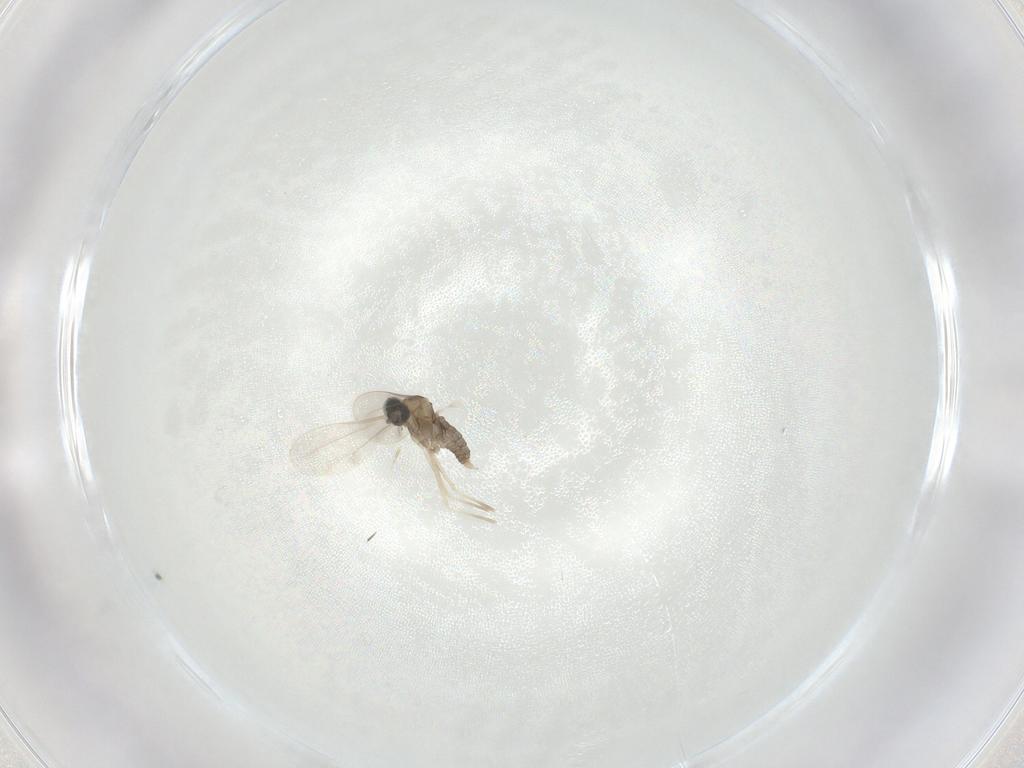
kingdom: Animalia
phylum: Arthropoda
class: Insecta
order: Diptera
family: Cecidomyiidae
